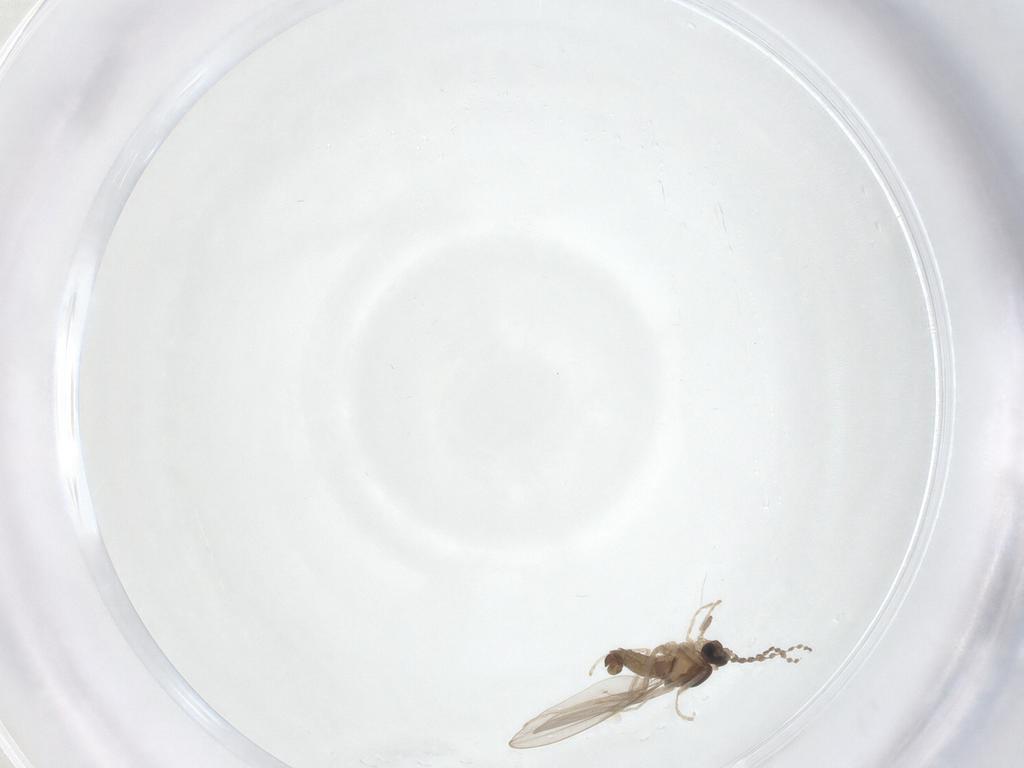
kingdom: Animalia
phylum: Arthropoda
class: Insecta
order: Diptera
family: Cecidomyiidae
